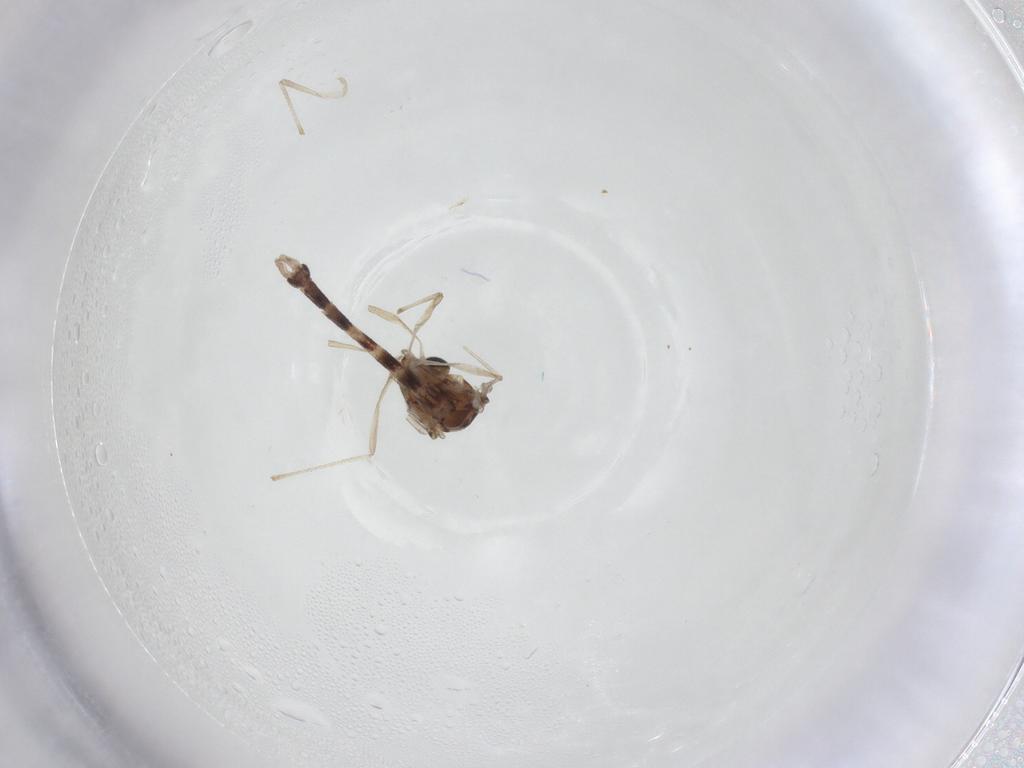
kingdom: Animalia
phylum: Arthropoda
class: Insecta
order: Diptera
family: Chironomidae
